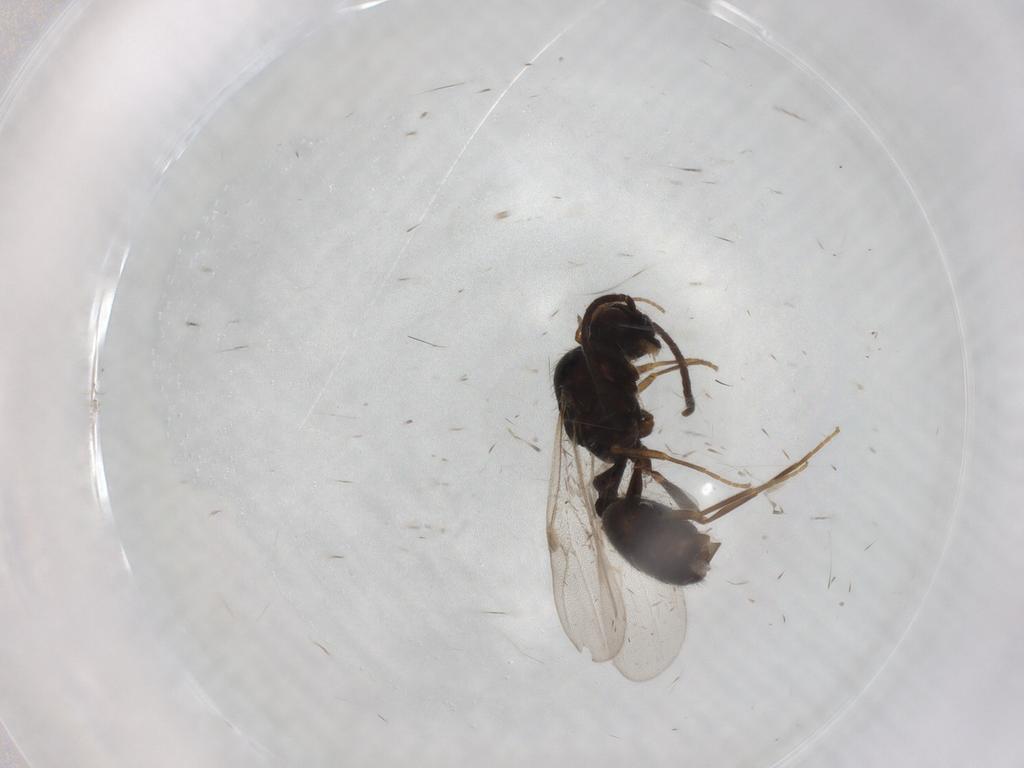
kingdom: Animalia
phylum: Arthropoda
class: Insecta
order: Hymenoptera
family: Formicidae
